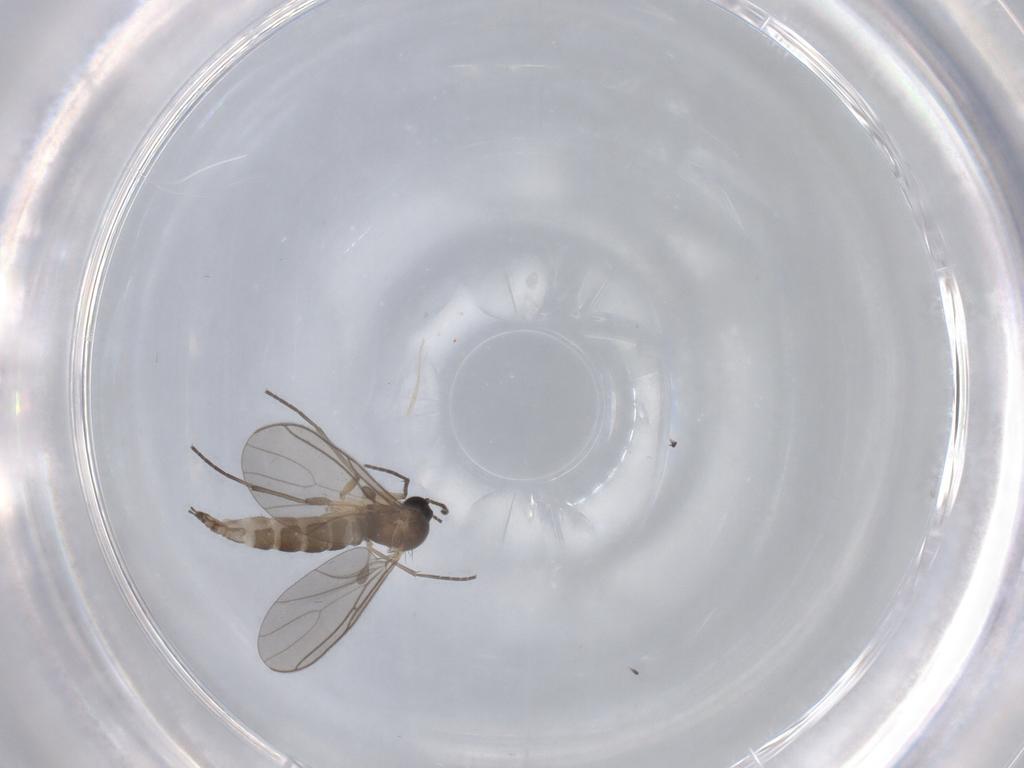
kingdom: Animalia
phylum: Arthropoda
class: Insecta
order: Diptera
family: Sciaridae
